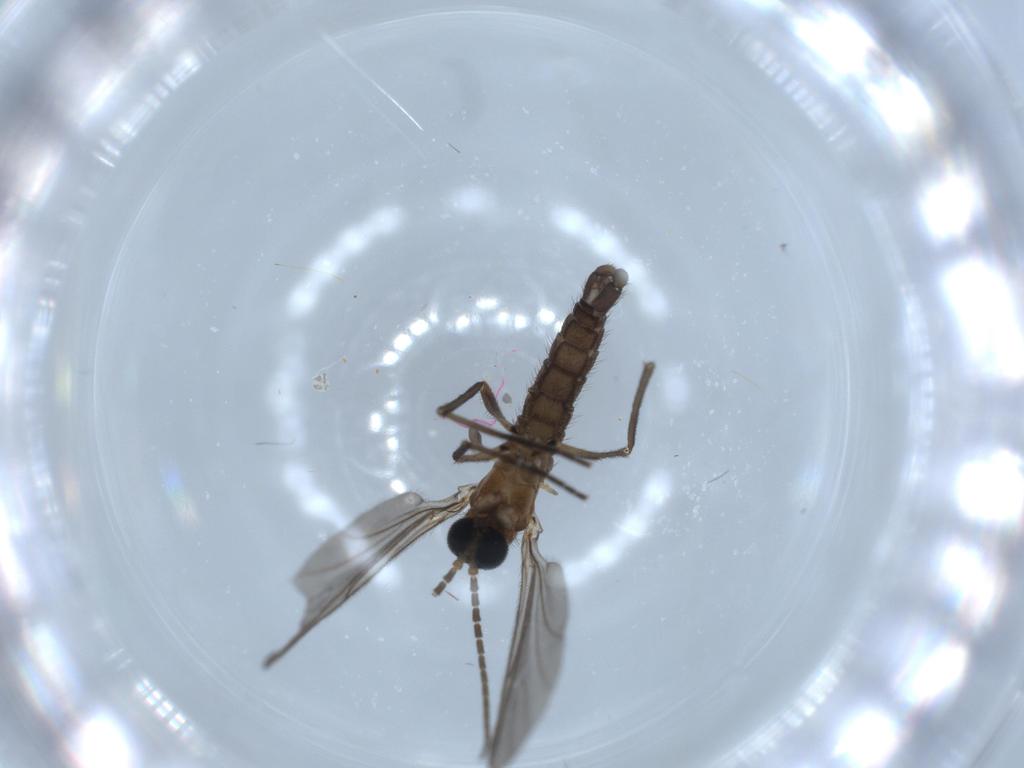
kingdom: Animalia
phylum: Arthropoda
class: Insecta
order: Diptera
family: Sciaridae
